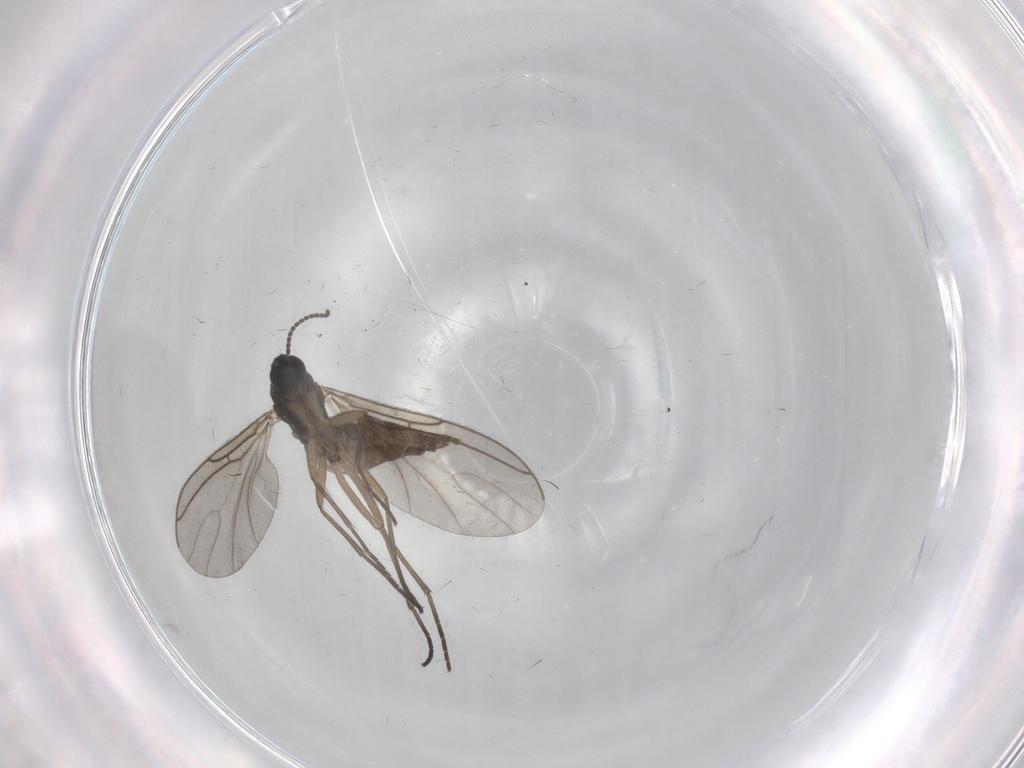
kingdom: Animalia
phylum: Arthropoda
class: Insecta
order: Diptera
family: Sciaridae
